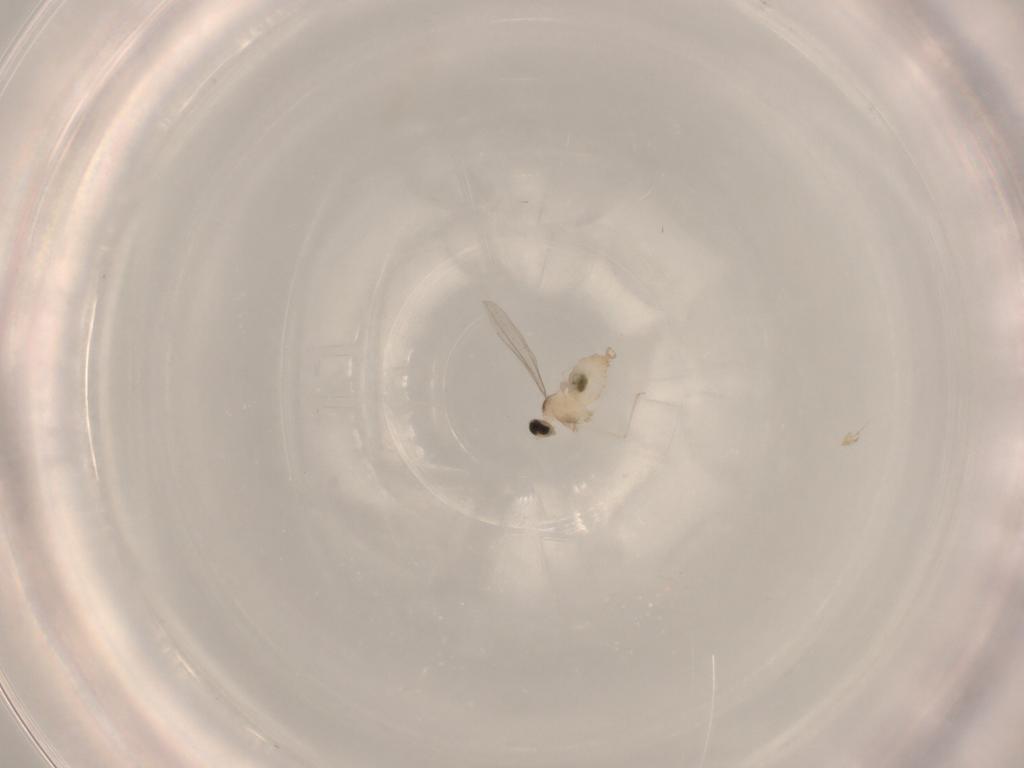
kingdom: Animalia
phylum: Arthropoda
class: Insecta
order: Diptera
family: Cecidomyiidae
